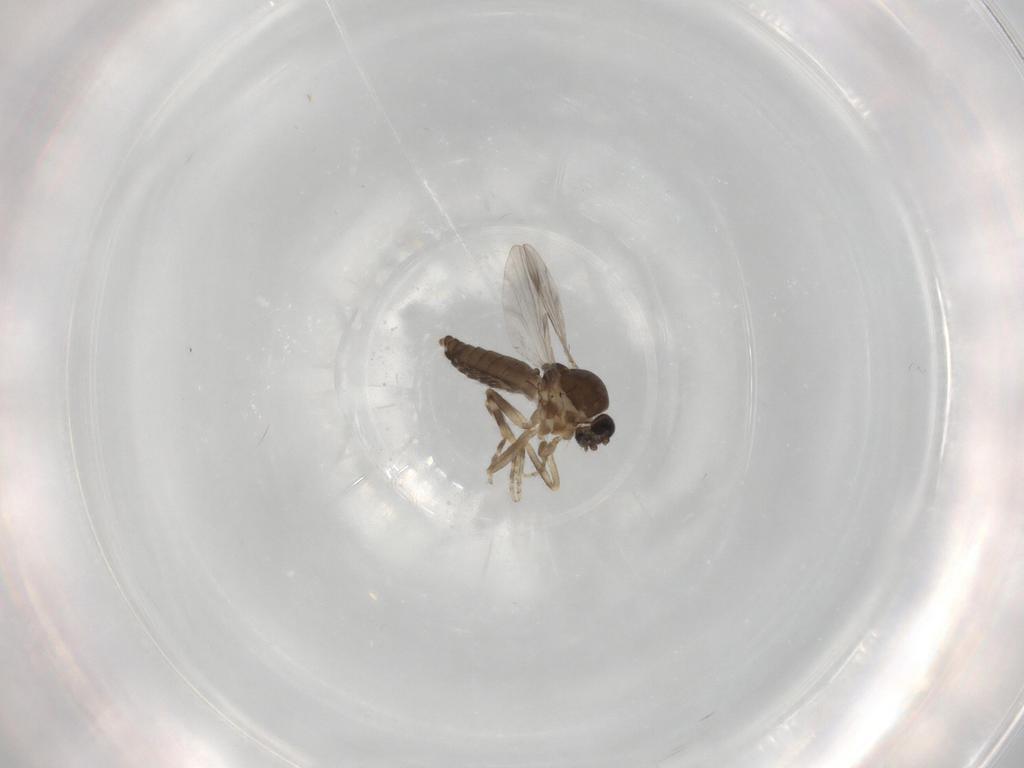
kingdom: Animalia
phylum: Arthropoda
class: Insecta
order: Diptera
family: Ceratopogonidae
